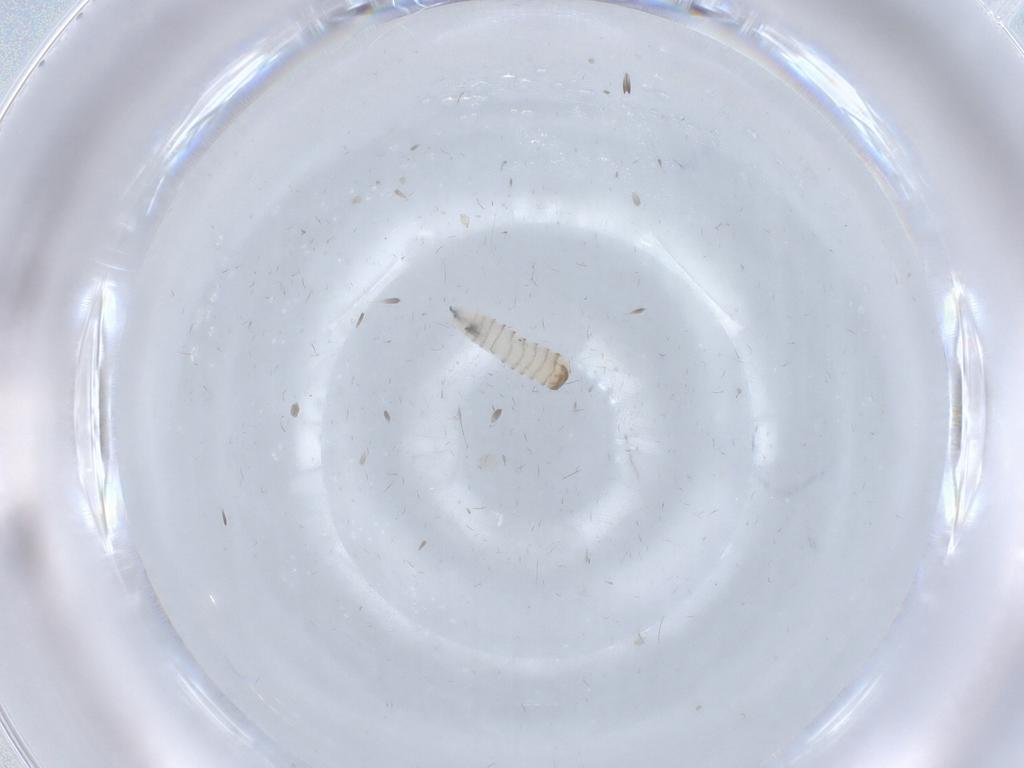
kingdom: Animalia
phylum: Arthropoda
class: Insecta
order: Diptera
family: Sarcophagidae
